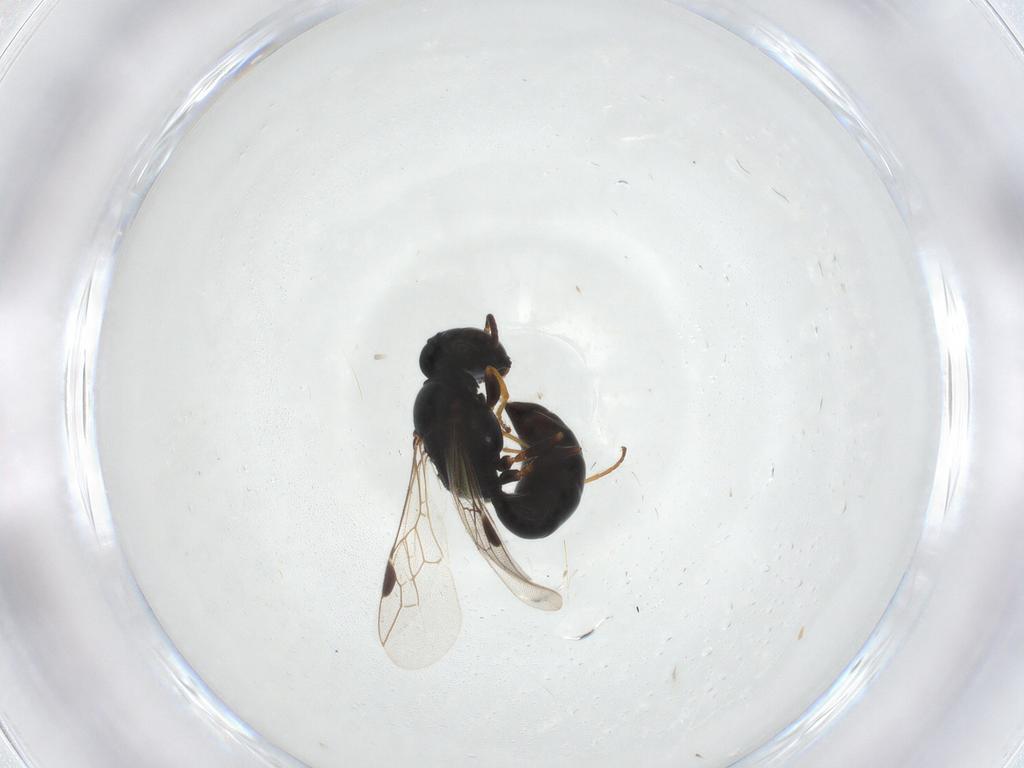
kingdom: Animalia
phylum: Arthropoda
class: Insecta
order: Hymenoptera
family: Pemphredonidae
